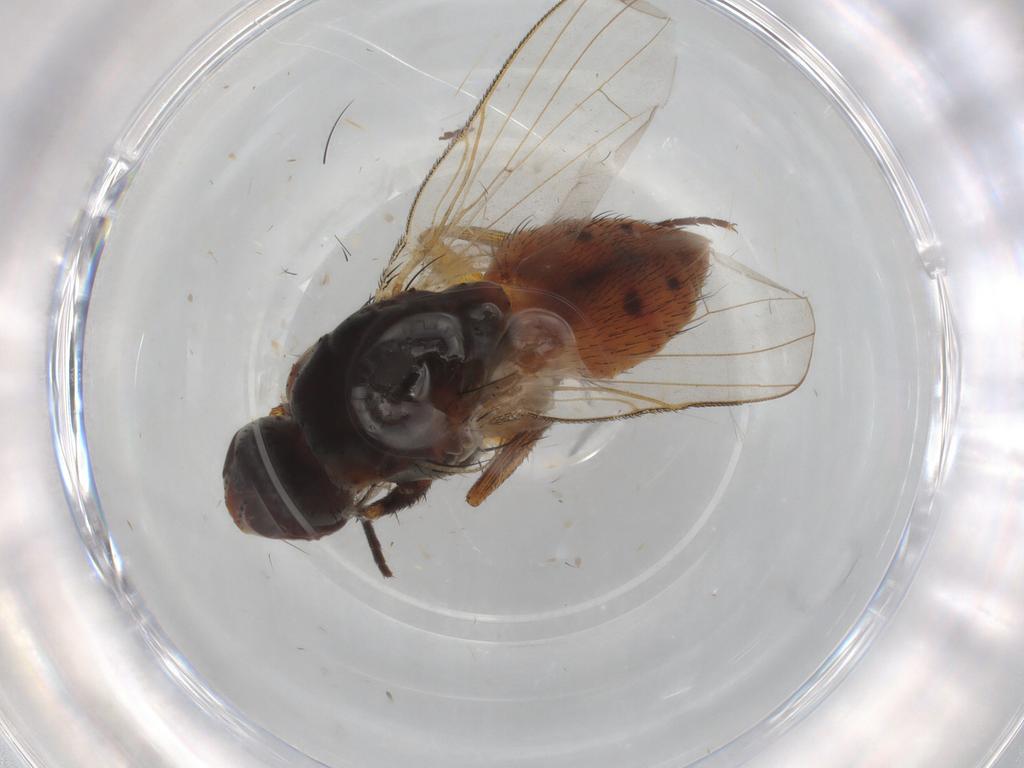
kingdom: Animalia
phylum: Arthropoda
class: Insecta
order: Diptera
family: Sarcophagidae
